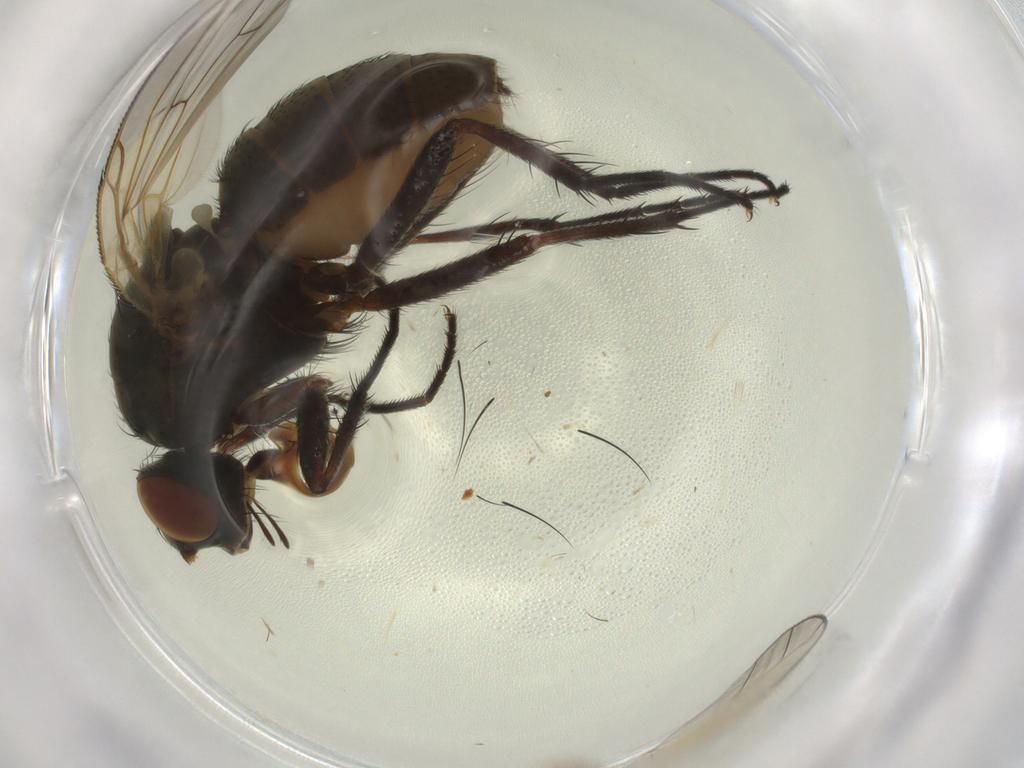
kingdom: Animalia
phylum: Arthropoda
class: Insecta
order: Diptera
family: Anthomyiidae
